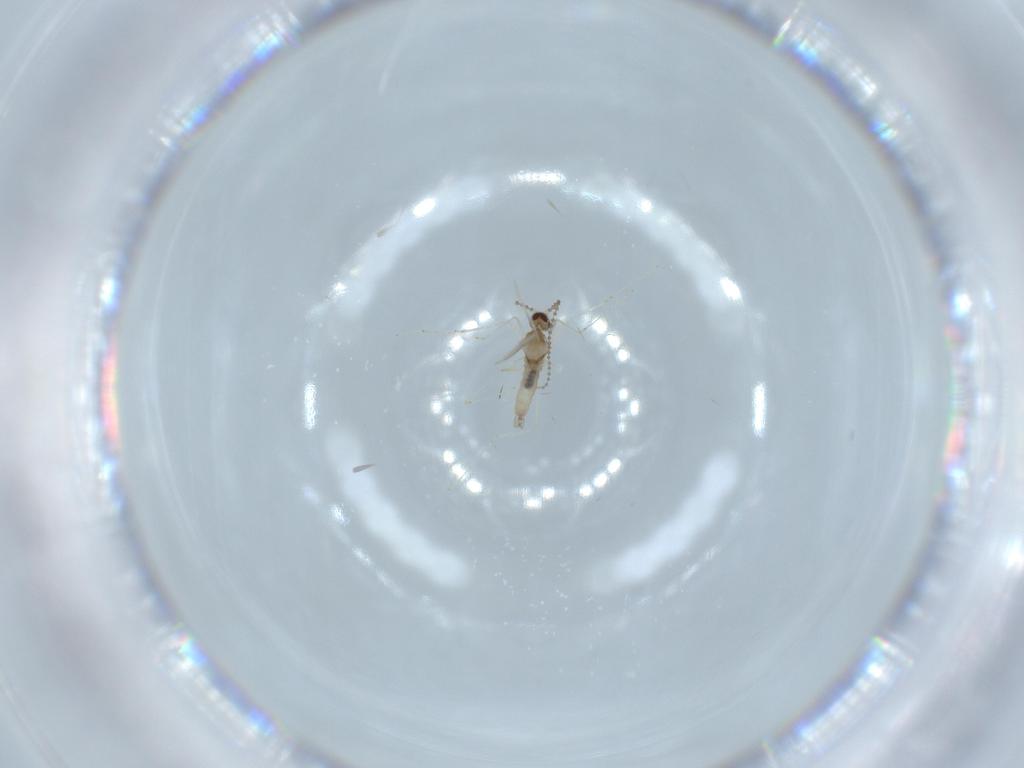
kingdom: Animalia
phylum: Arthropoda
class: Insecta
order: Diptera
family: Cecidomyiidae
